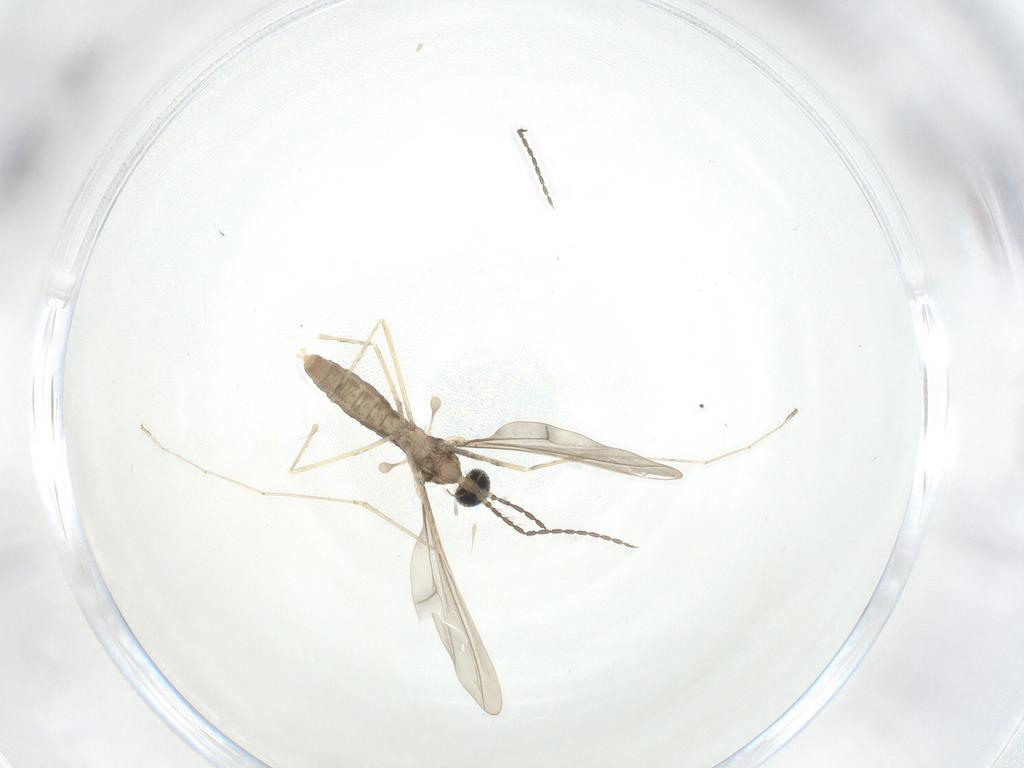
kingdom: Animalia
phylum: Arthropoda
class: Insecta
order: Diptera
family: Cecidomyiidae
